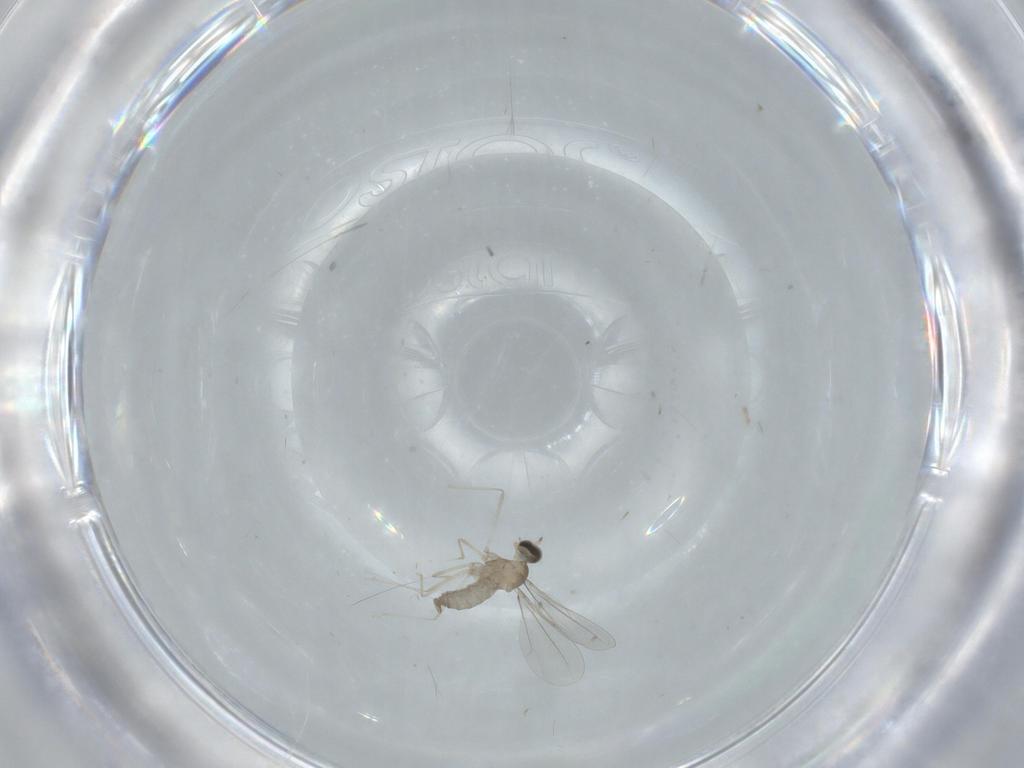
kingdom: Animalia
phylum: Arthropoda
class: Insecta
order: Diptera
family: Cecidomyiidae
